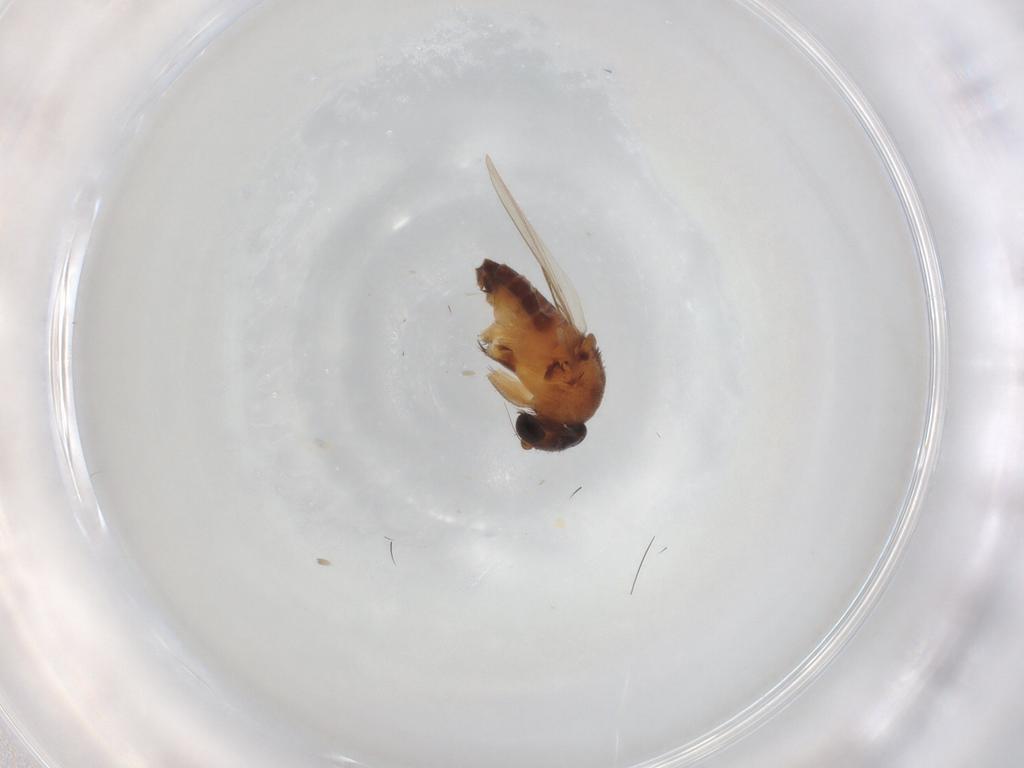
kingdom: Animalia
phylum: Arthropoda
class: Insecta
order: Diptera
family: Phoridae
